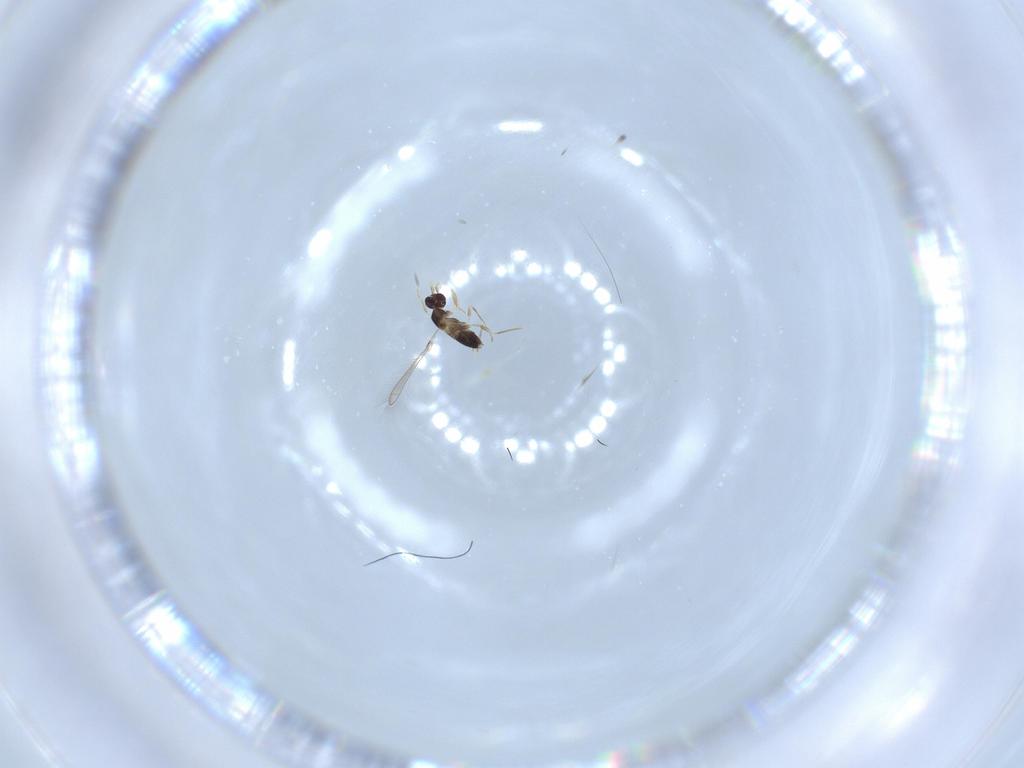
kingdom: Animalia
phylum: Arthropoda
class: Insecta
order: Hymenoptera
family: Mymaridae
